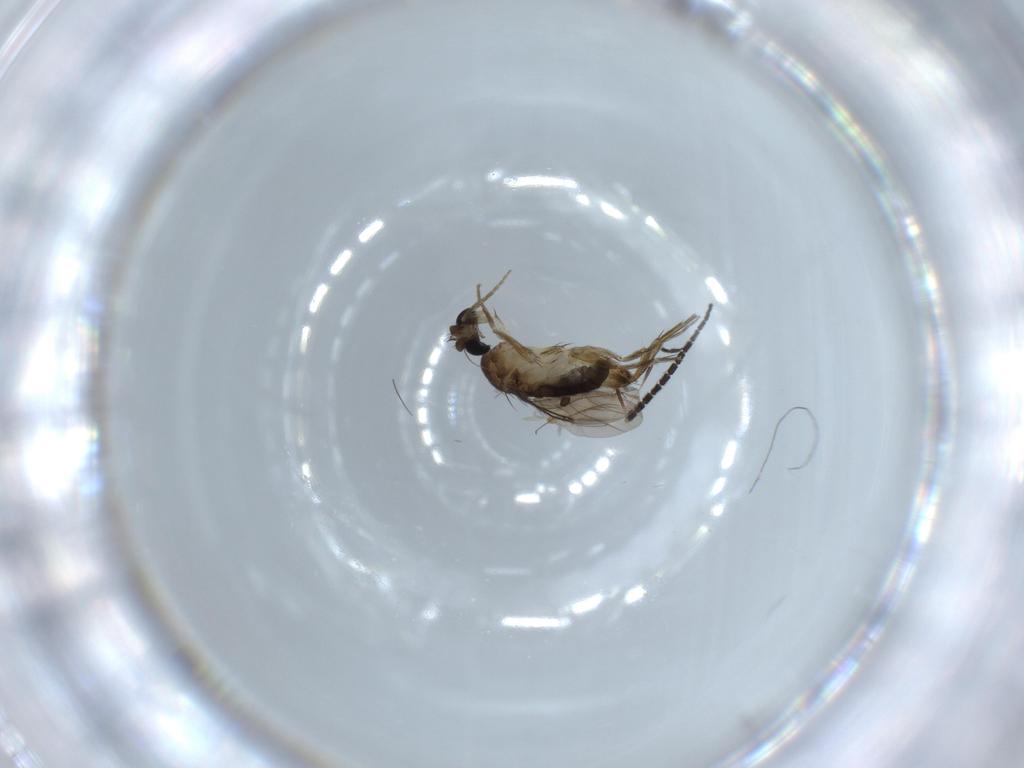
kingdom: Animalia
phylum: Arthropoda
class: Insecta
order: Diptera
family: Phoridae
